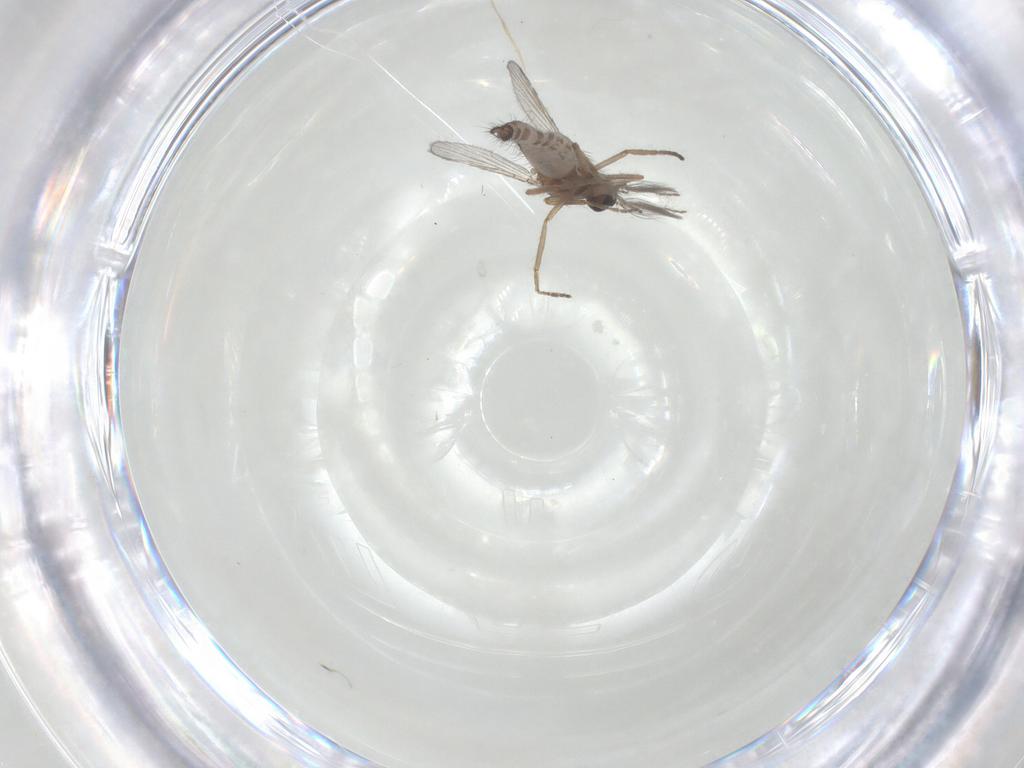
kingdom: Animalia
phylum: Arthropoda
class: Insecta
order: Diptera
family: Ceratopogonidae
